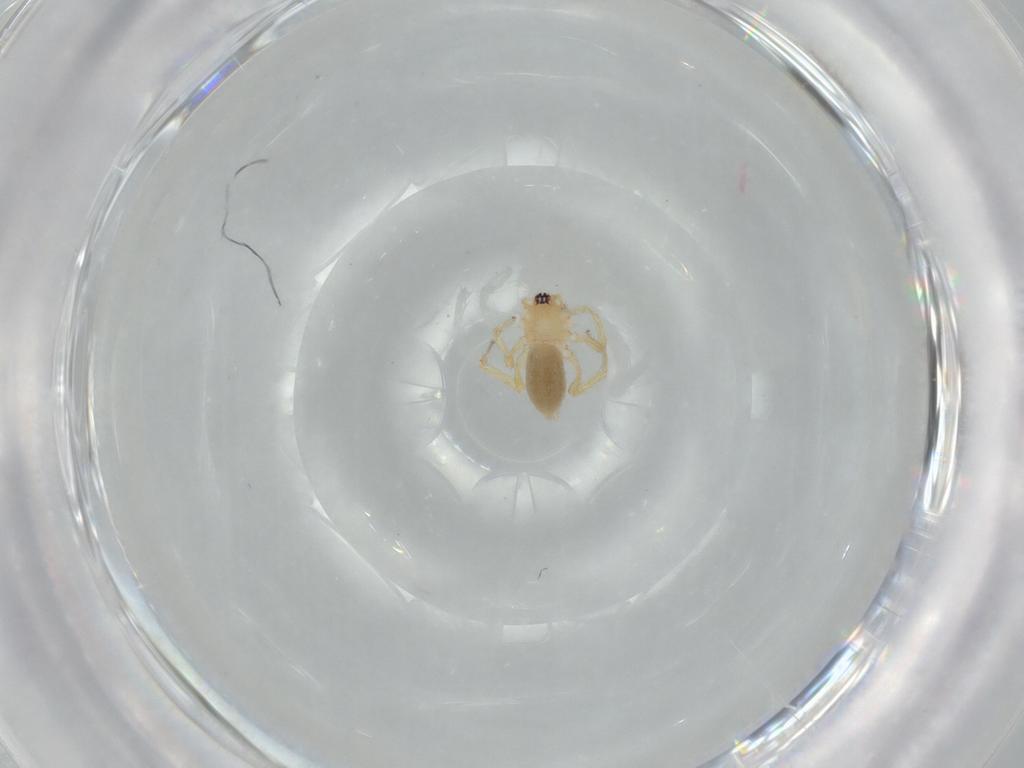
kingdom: Animalia
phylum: Arthropoda
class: Arachnida
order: Araneae
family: Oonopidae
